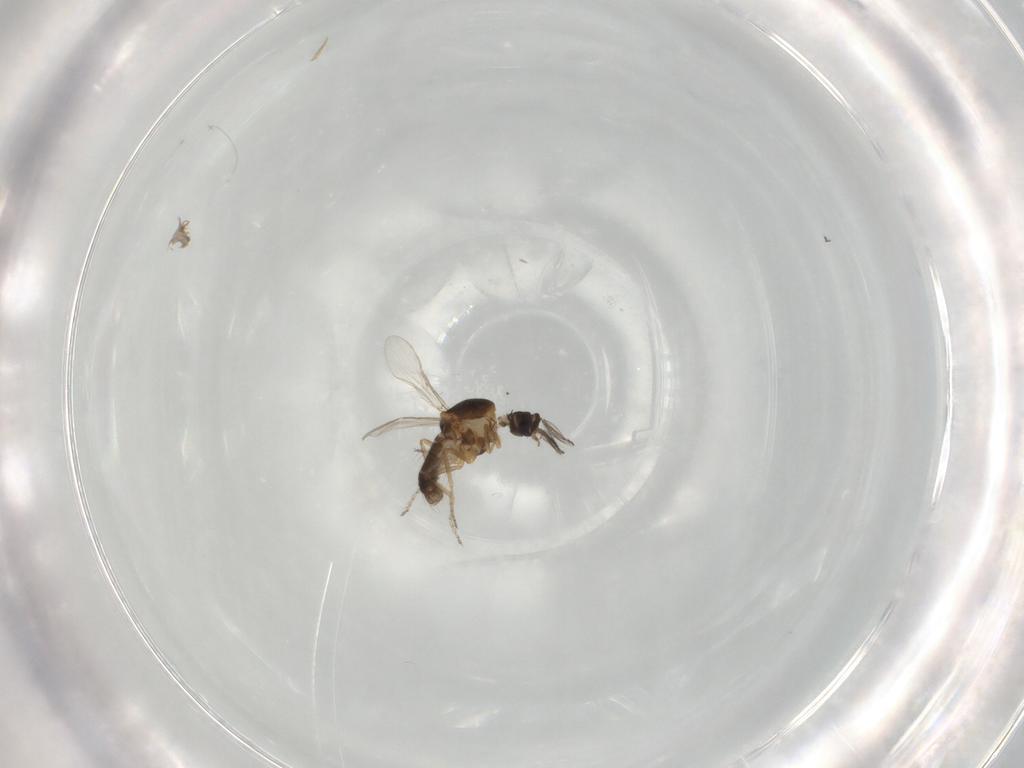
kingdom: Animalia
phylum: Arthropoda
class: Insecta
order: Diptera
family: Ceratopogonidae
